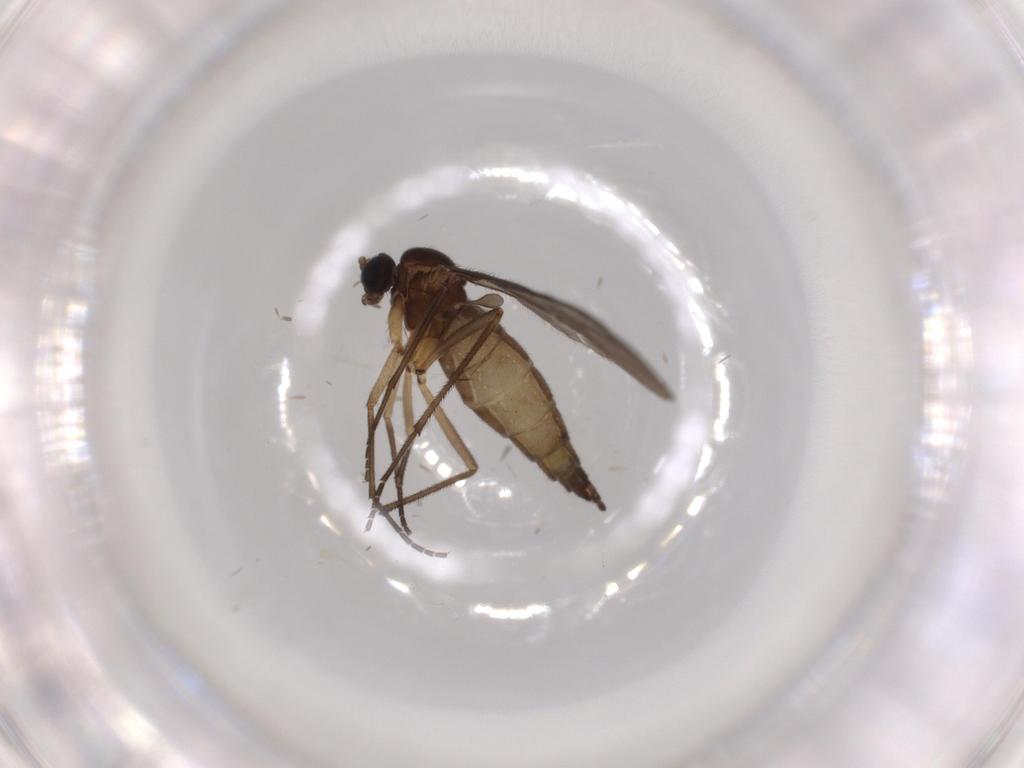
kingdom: Animalia
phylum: Arthropoda
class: Insecta
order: Diptera
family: Sciaridae
